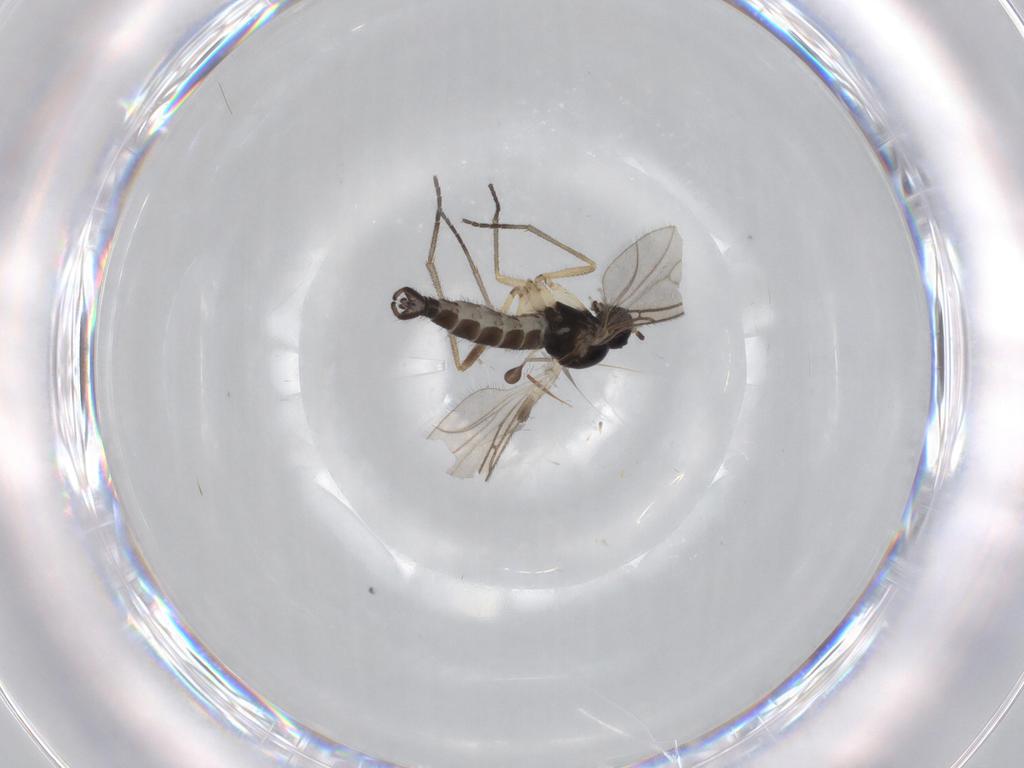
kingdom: Animalia
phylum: Arthropoda
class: Insecta
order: Diptera
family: Sciaridae
